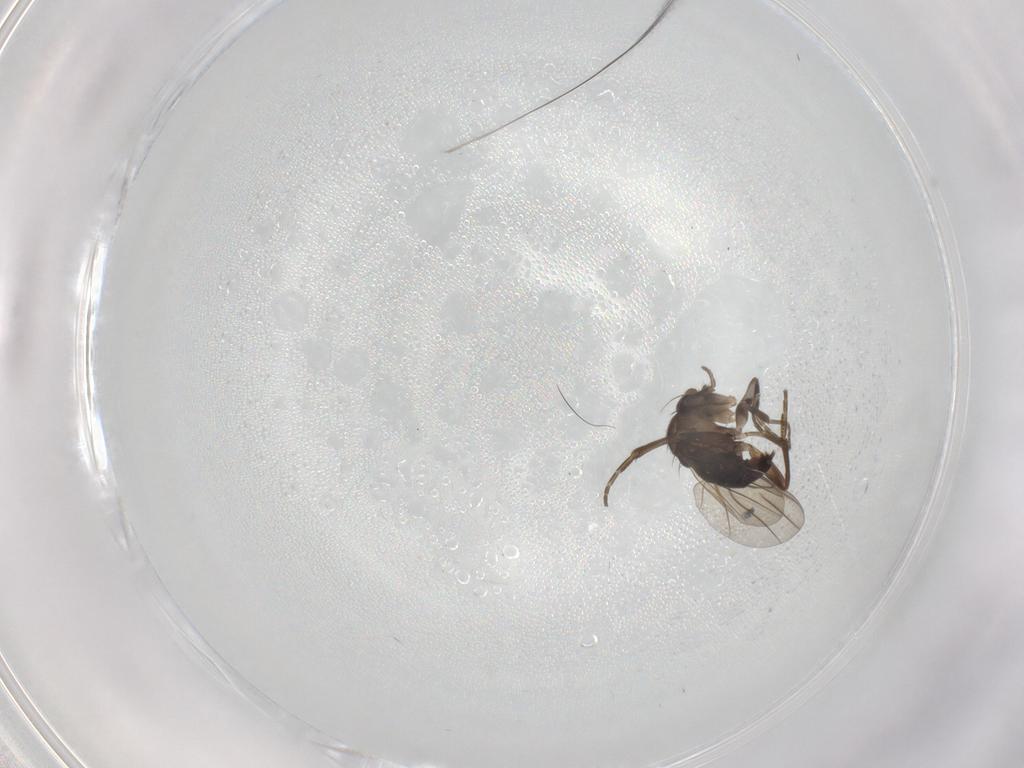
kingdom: Animalia
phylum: Arthropoda
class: Insecta
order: Diptera
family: Phoridae
